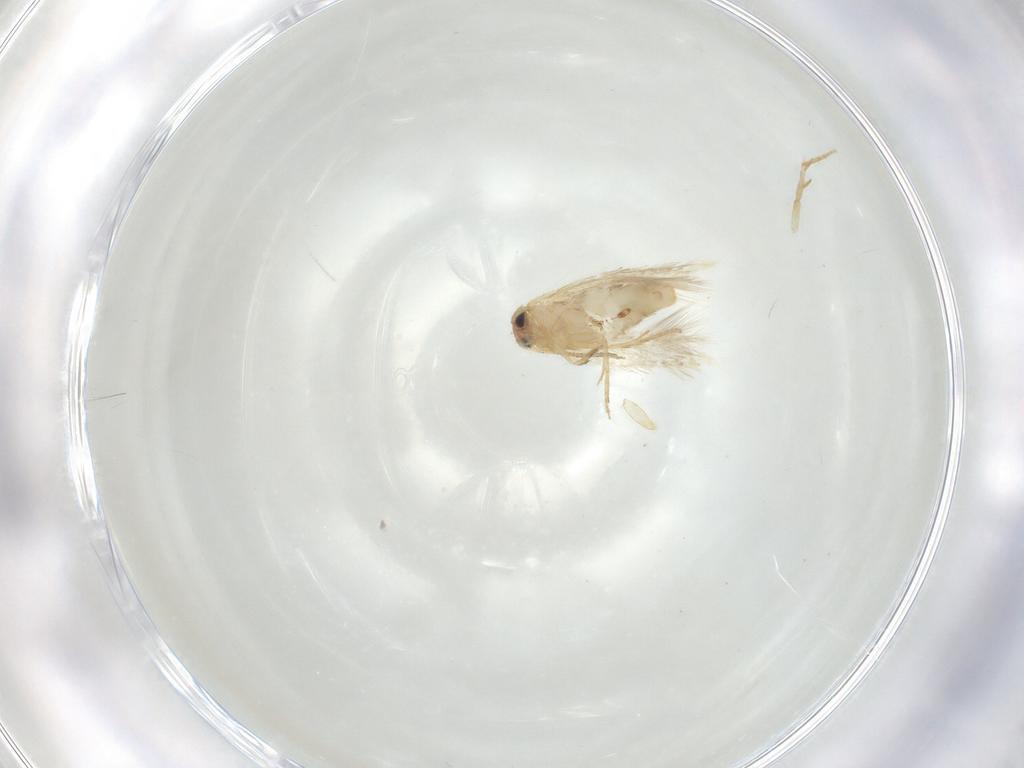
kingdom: Animalia
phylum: Arthropoda
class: Insecta
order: Lepidoptera
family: Nepticulidae
